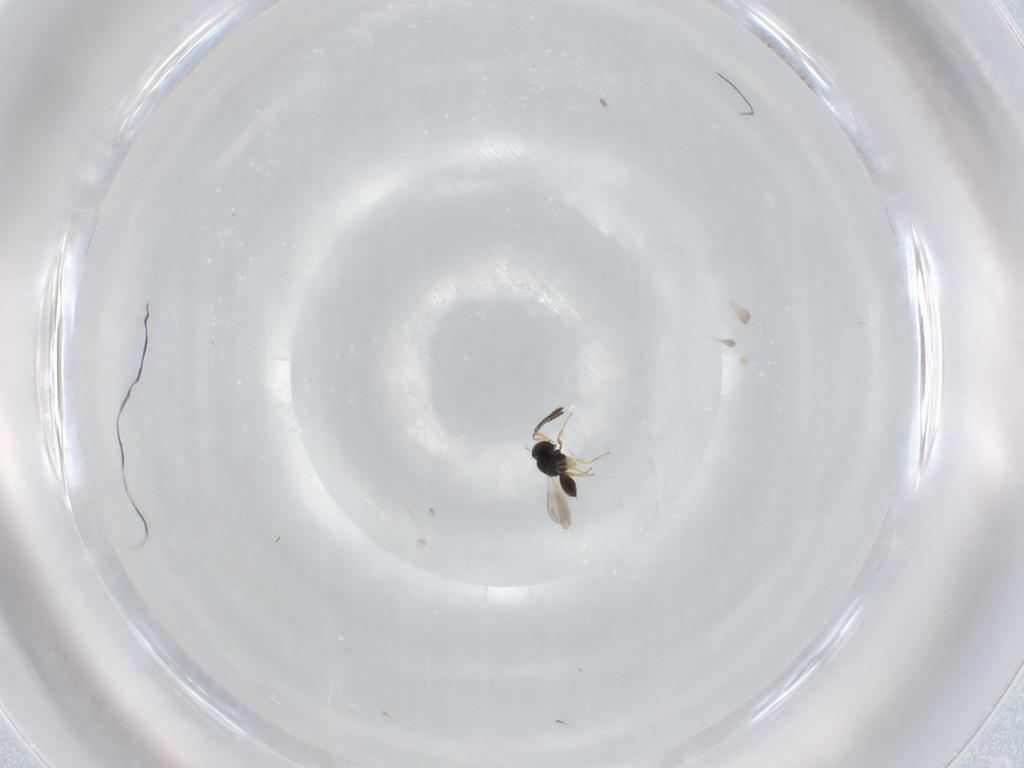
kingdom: Animalia
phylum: Arthropoda
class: Insecta
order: Hymenoptera
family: Scelionidae
